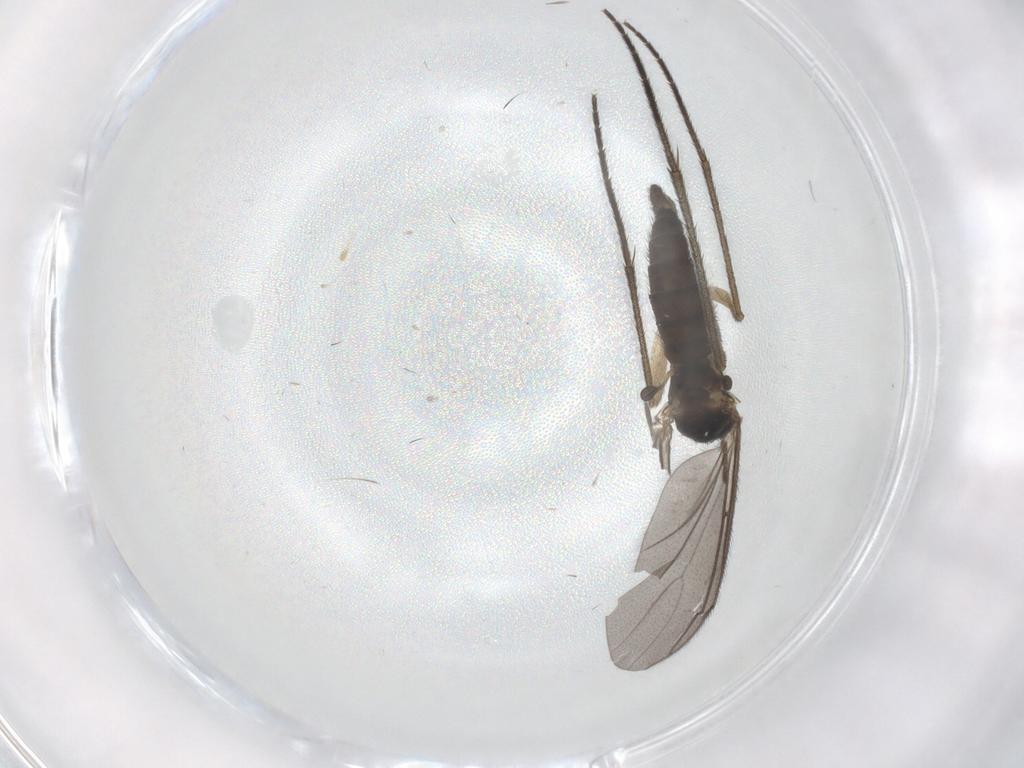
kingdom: Animalia
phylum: Arthropoda
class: Insecta
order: Diptera
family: Sciaridae
